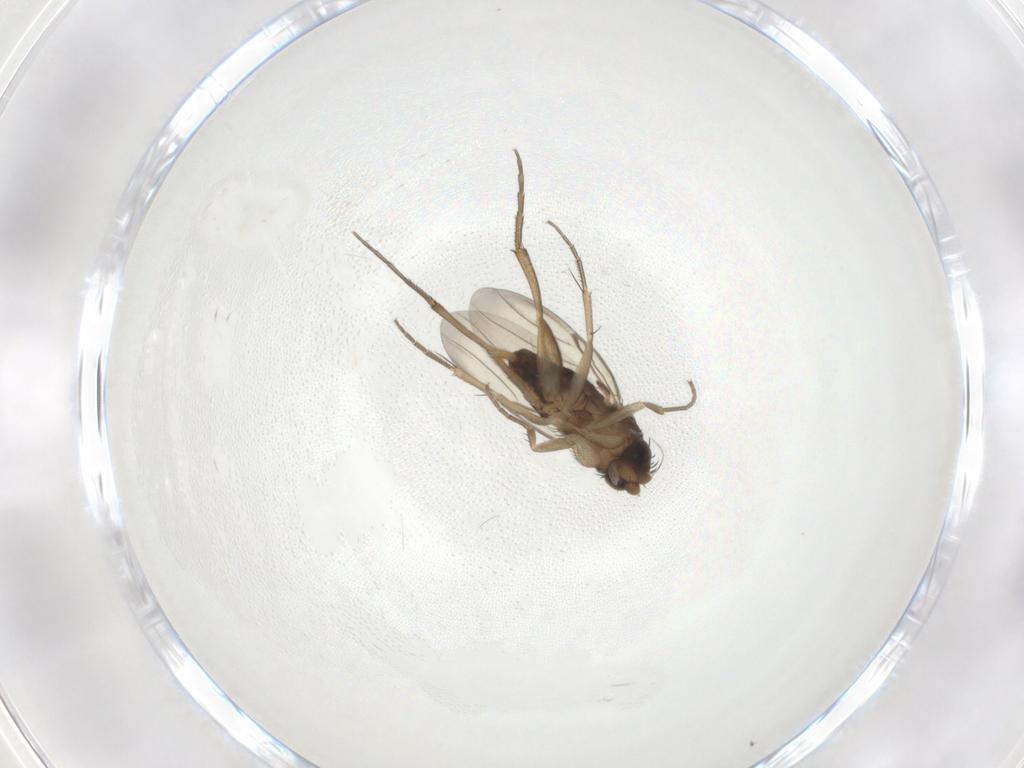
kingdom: Animalia
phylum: Arthropoda
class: Insecta
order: Diptera
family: Phoridae
